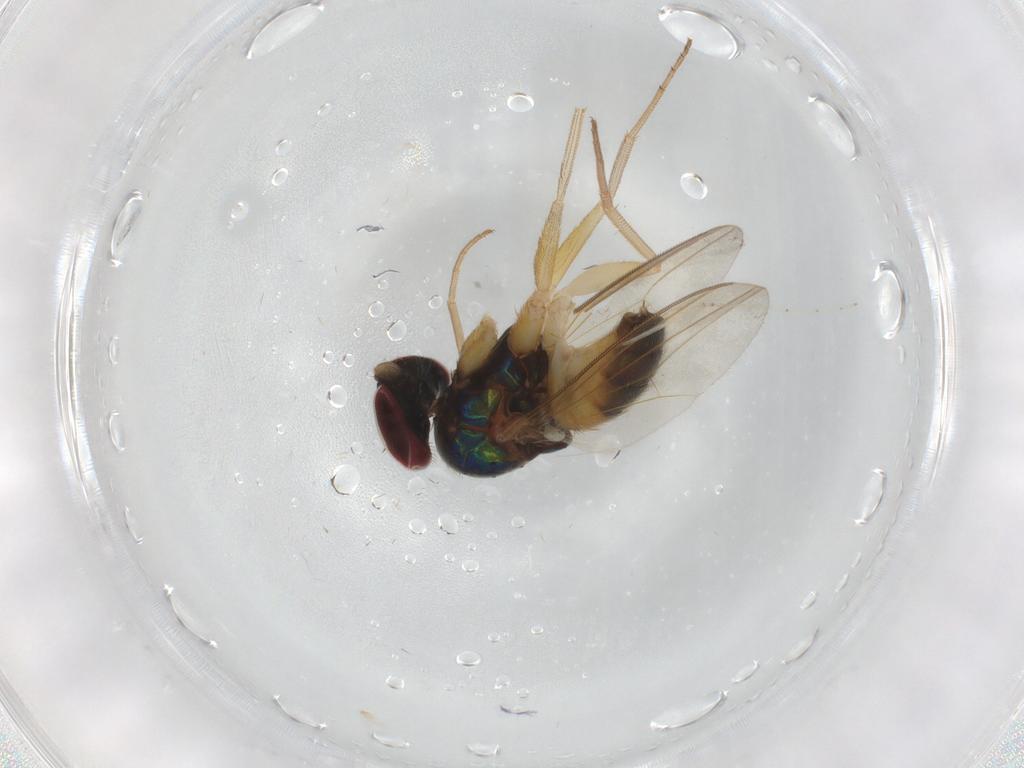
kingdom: Animalia
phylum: Arthropoda
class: Insecta
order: Diptera
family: Dolichopodidae
